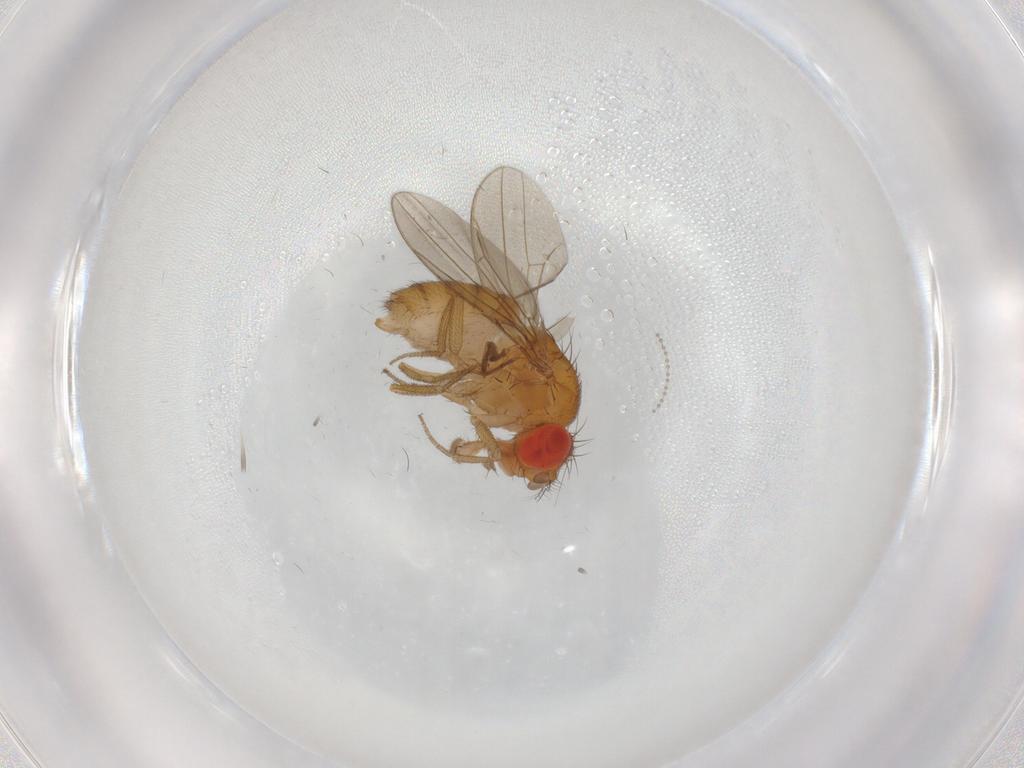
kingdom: Animalia
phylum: Arthropoda
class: Insecta
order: Diptera
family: Drosophilidae
